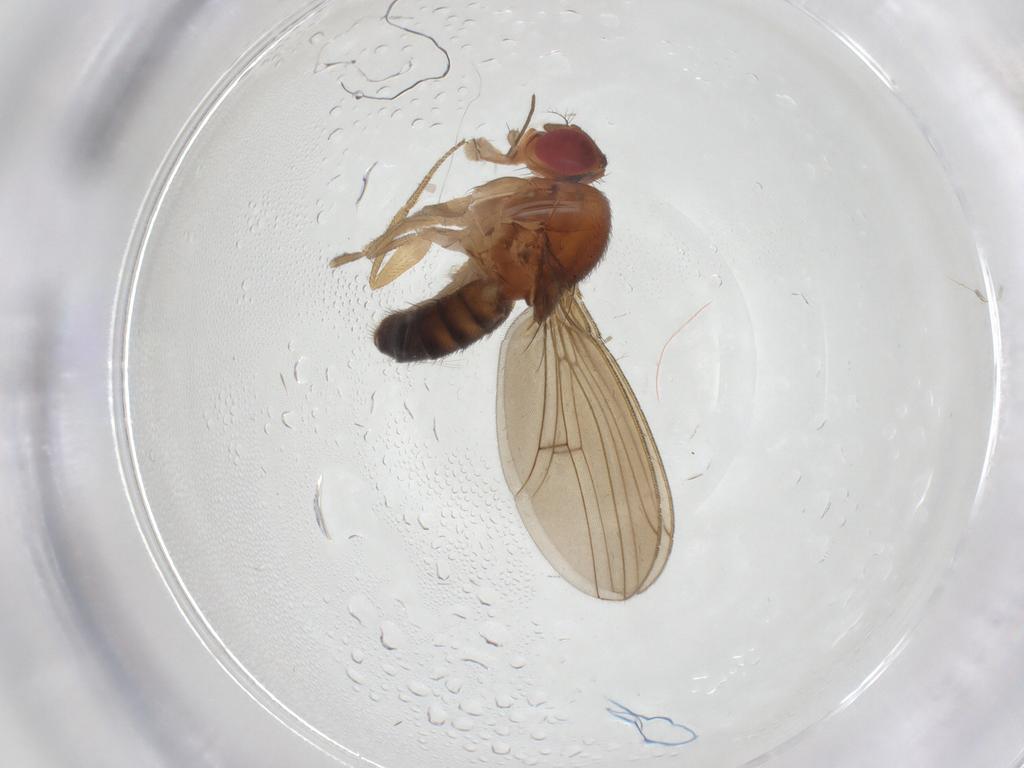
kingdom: Animalia
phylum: Arthropoda
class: Insecta
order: Diptera
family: Drosophilidae
